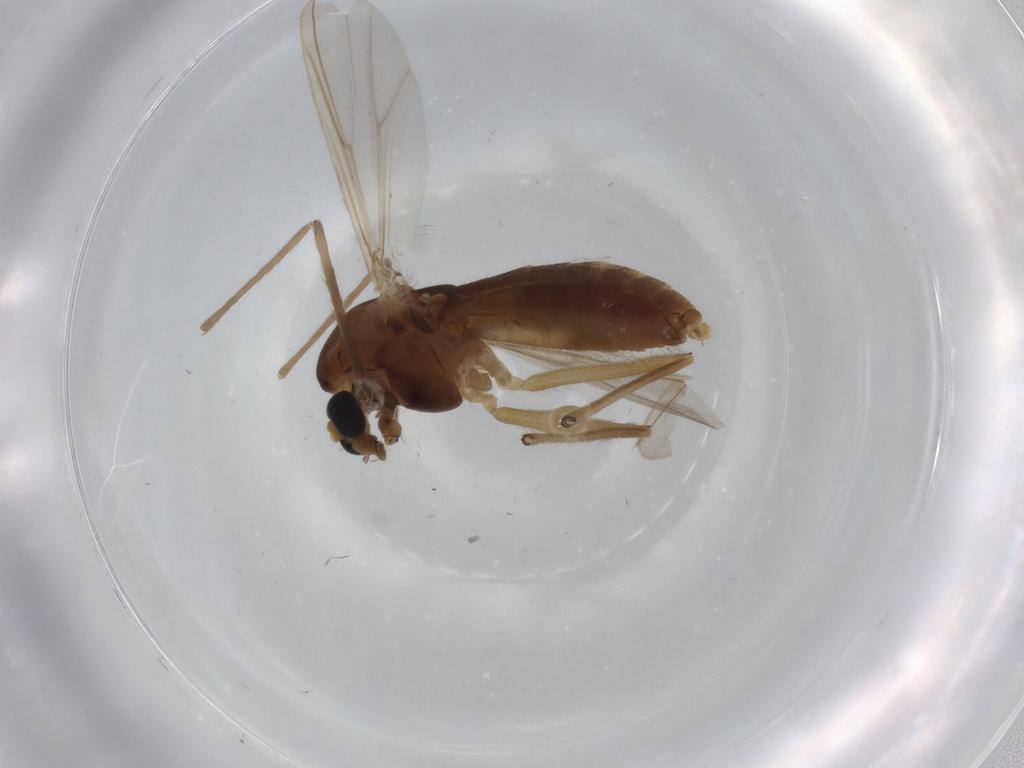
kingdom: Animalia
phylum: Arthropoda
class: Insecta
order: Diptera
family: Chironomidae
